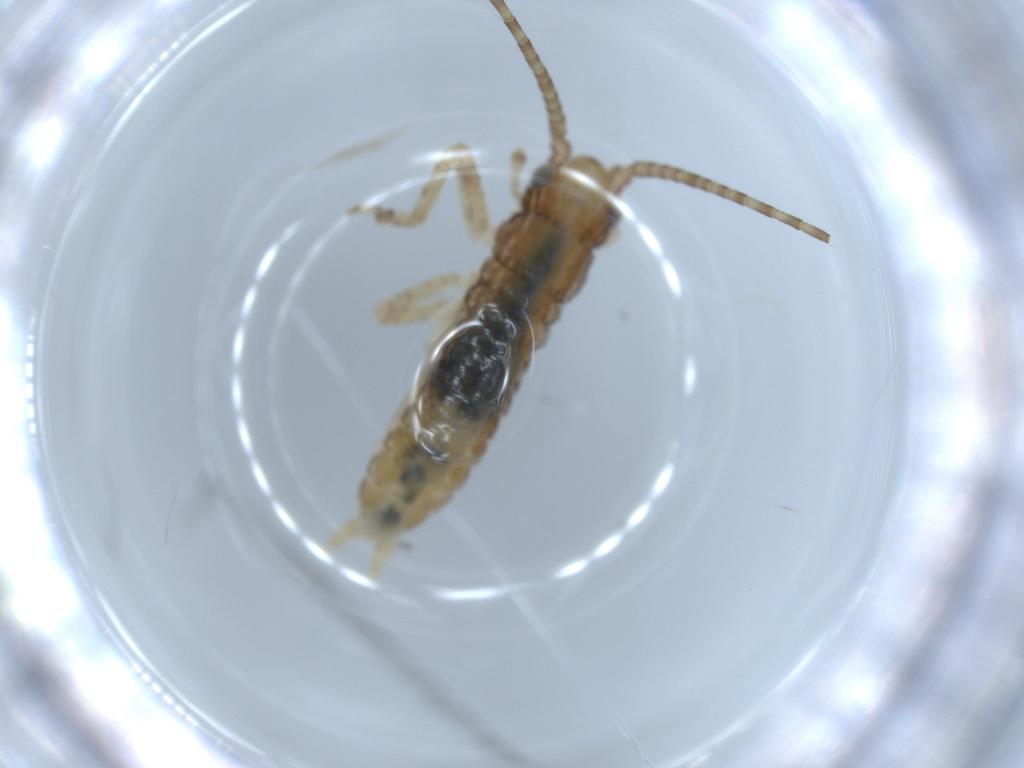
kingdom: Animalia
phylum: Arthropoda
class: Insecta
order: Orthoptera
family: Gryllidae
